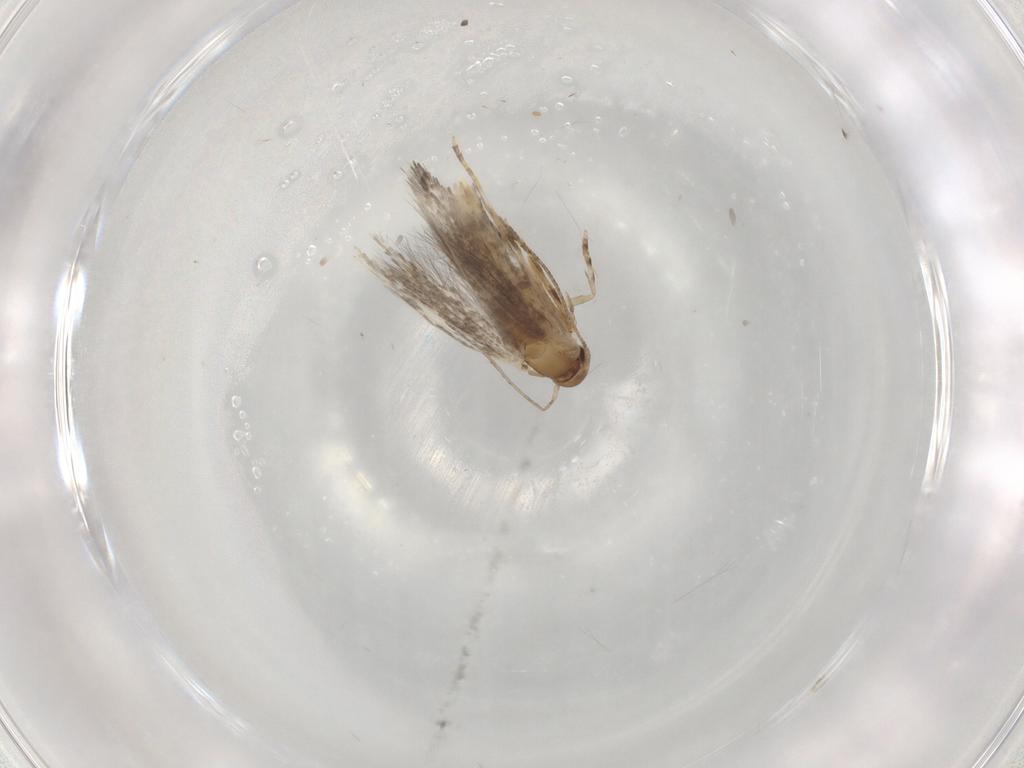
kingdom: Animalia
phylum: Arthropoda
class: Insecta
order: Lepidoptera
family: Elachistidae
